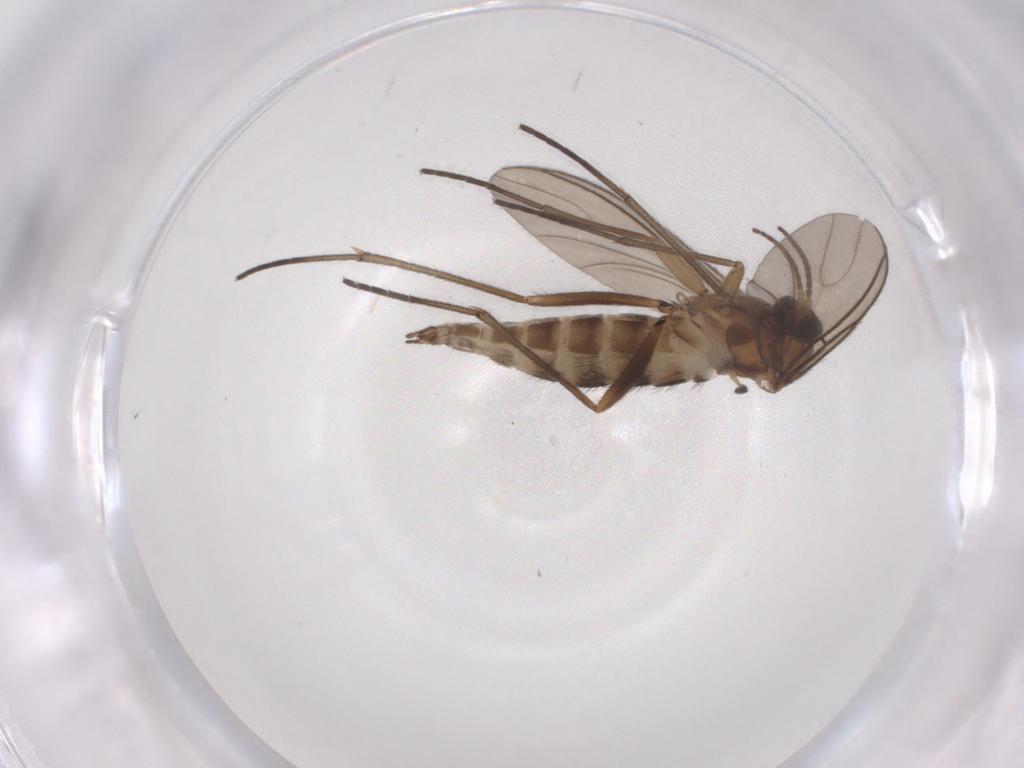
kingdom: Animalia
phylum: Arthropoda
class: Insecta
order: Diptera
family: Sciaridae
